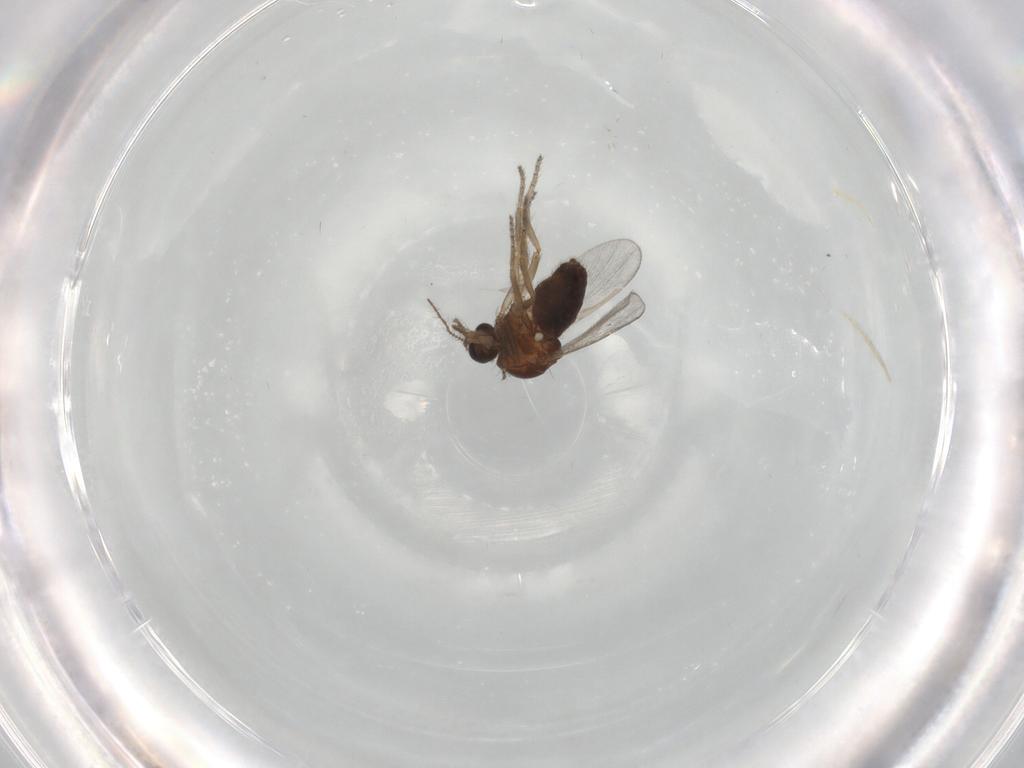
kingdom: Animalia
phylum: Arthropoda
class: Insecta
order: Diptera
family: Ceratopogonidae
